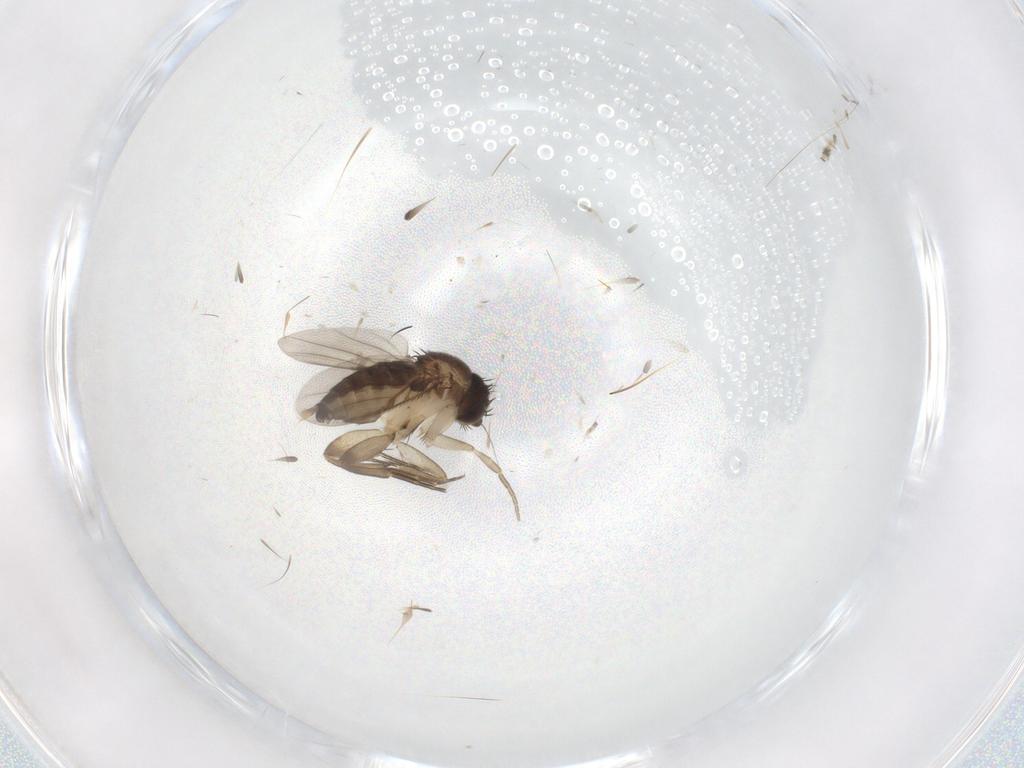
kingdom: Animalia
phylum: Arthropoda
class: Insecta
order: Diptera
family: Phoridae
